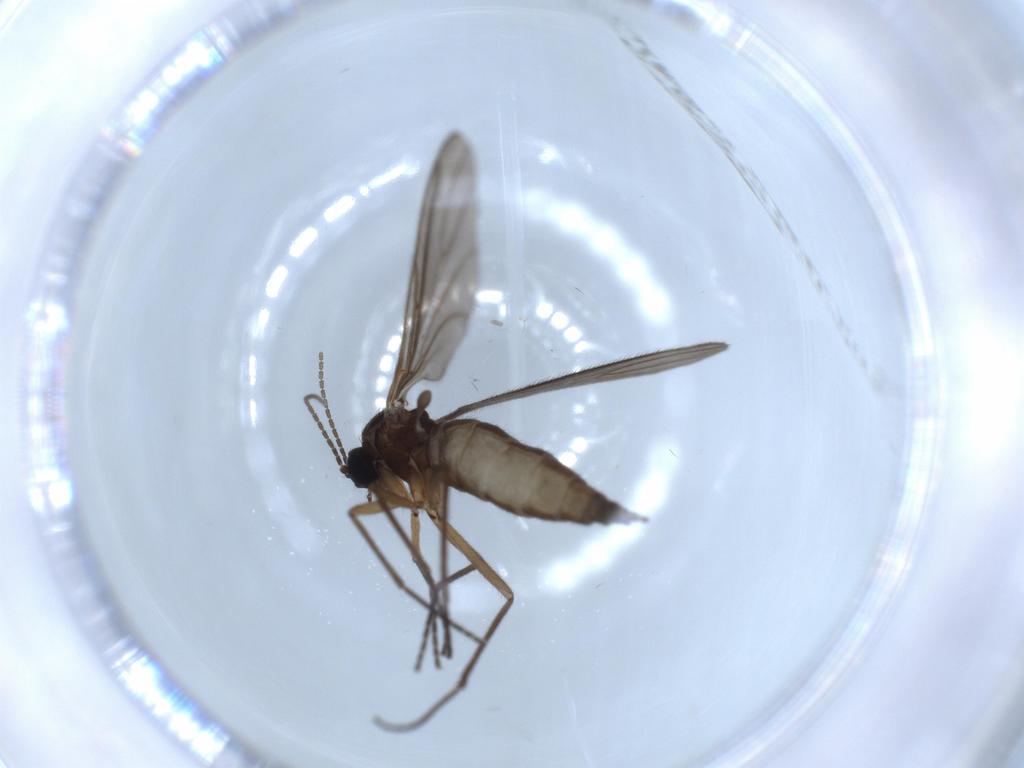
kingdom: Animalia
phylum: Arthropoda
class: Insecta
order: Diptera
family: Sciaridae
